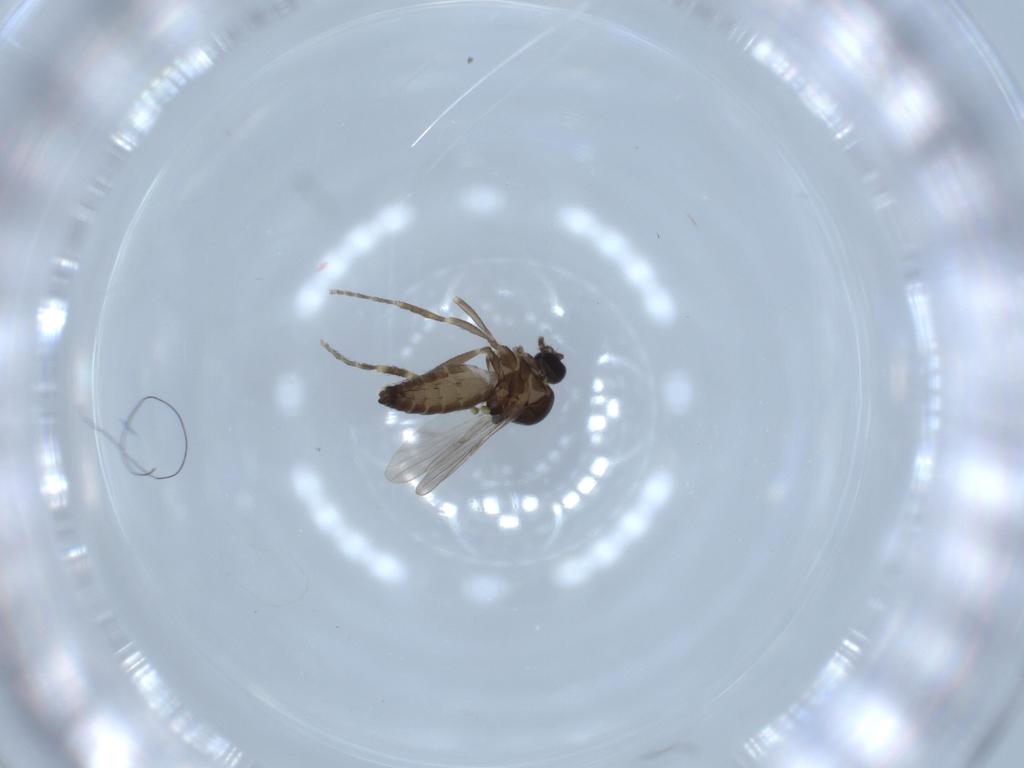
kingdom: Animalia
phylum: Arthropoda
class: Insecta
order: Diptera
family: Ceratopogonidae
